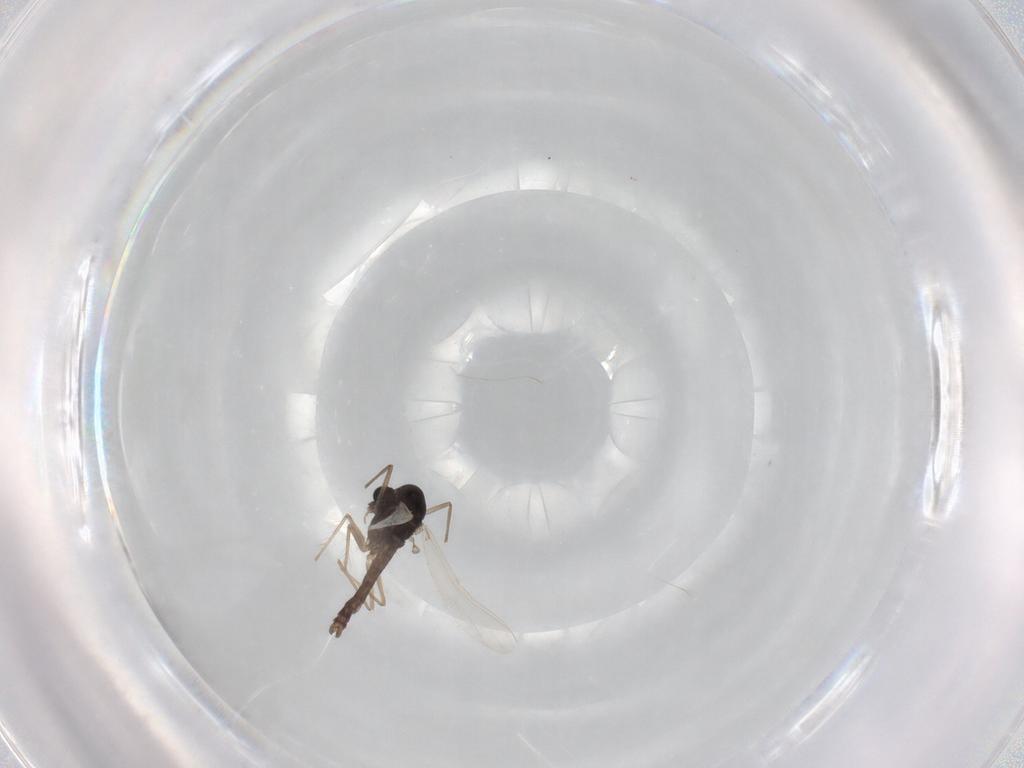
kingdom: Animalia
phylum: Arthropoda
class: Insecta
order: Diptera
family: Chironomidae
